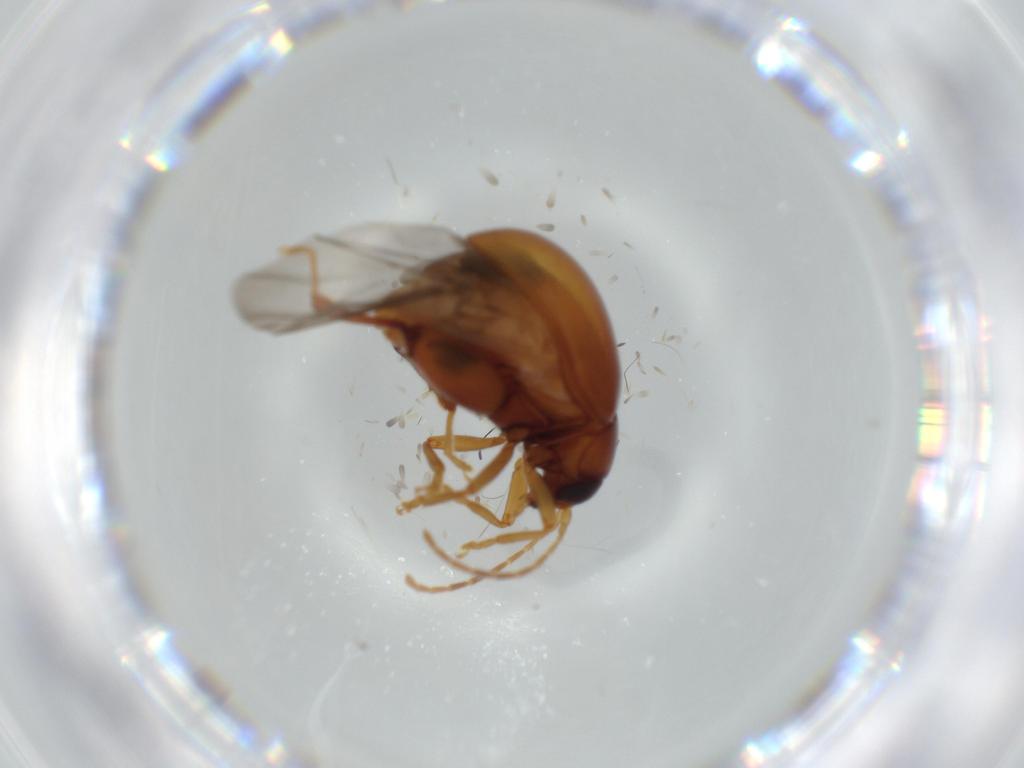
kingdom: Animalia
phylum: Arthropoda
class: Insecta
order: Coleoptera
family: Chrysomelidae
